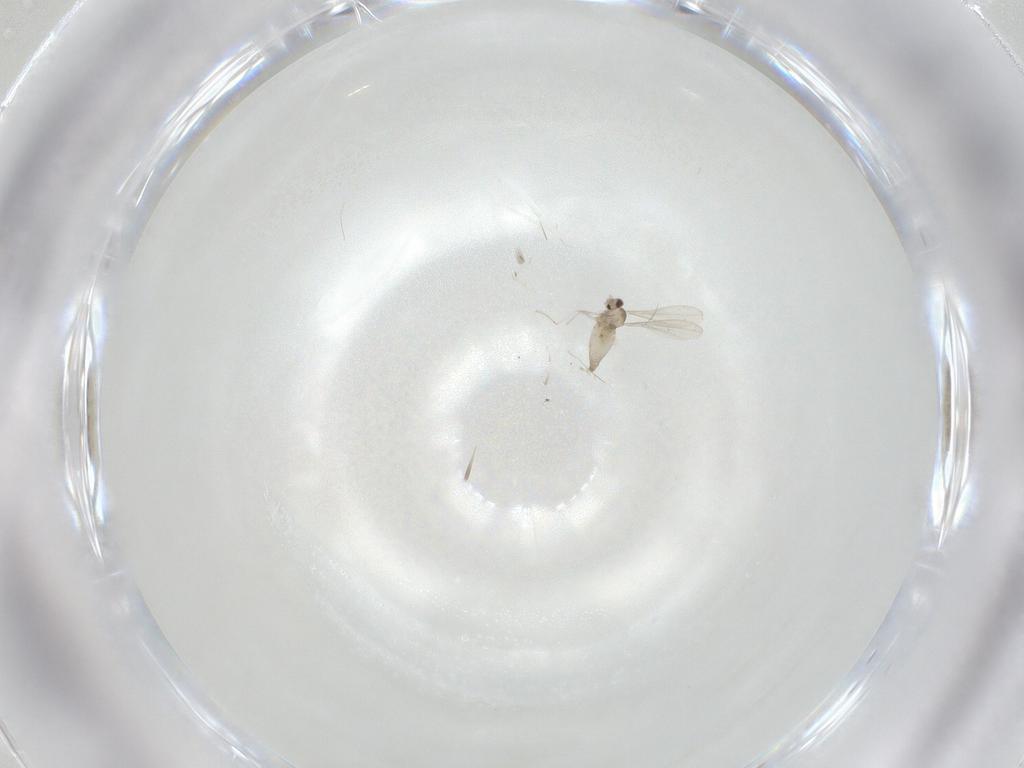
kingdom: Animalia
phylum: Arthropoda
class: Insecta
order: Diptera
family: Cecidomyiidae
